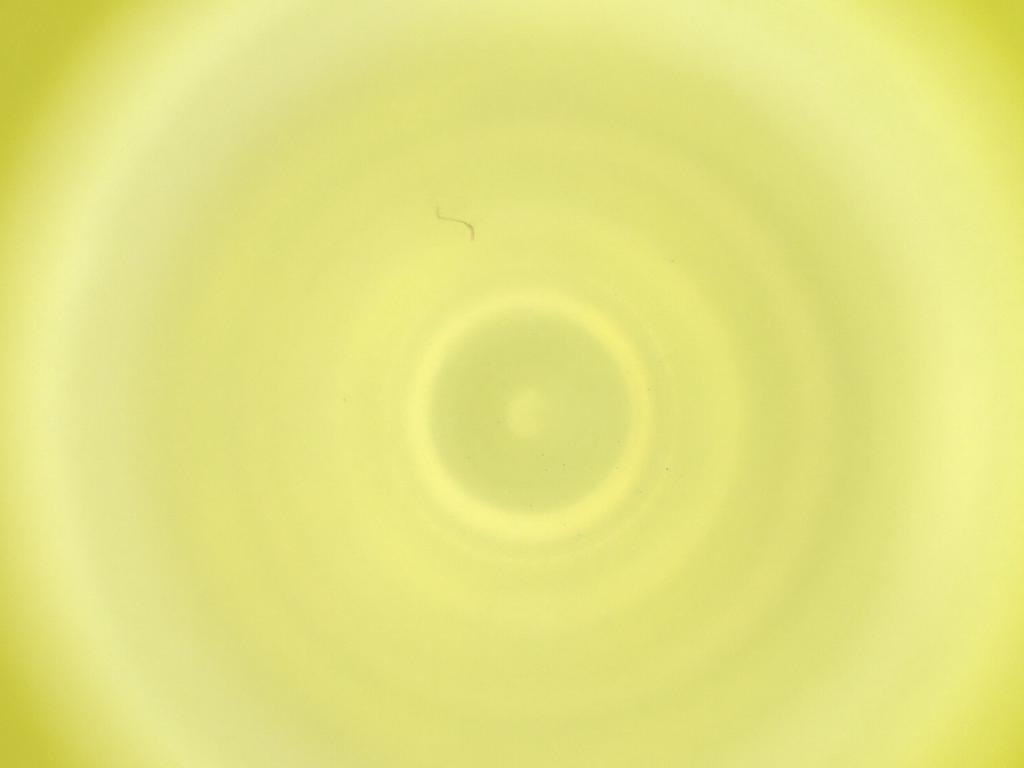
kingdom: Animalia
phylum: Arthropoda
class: Insecta
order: Diptera
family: Cecidomyiidae
